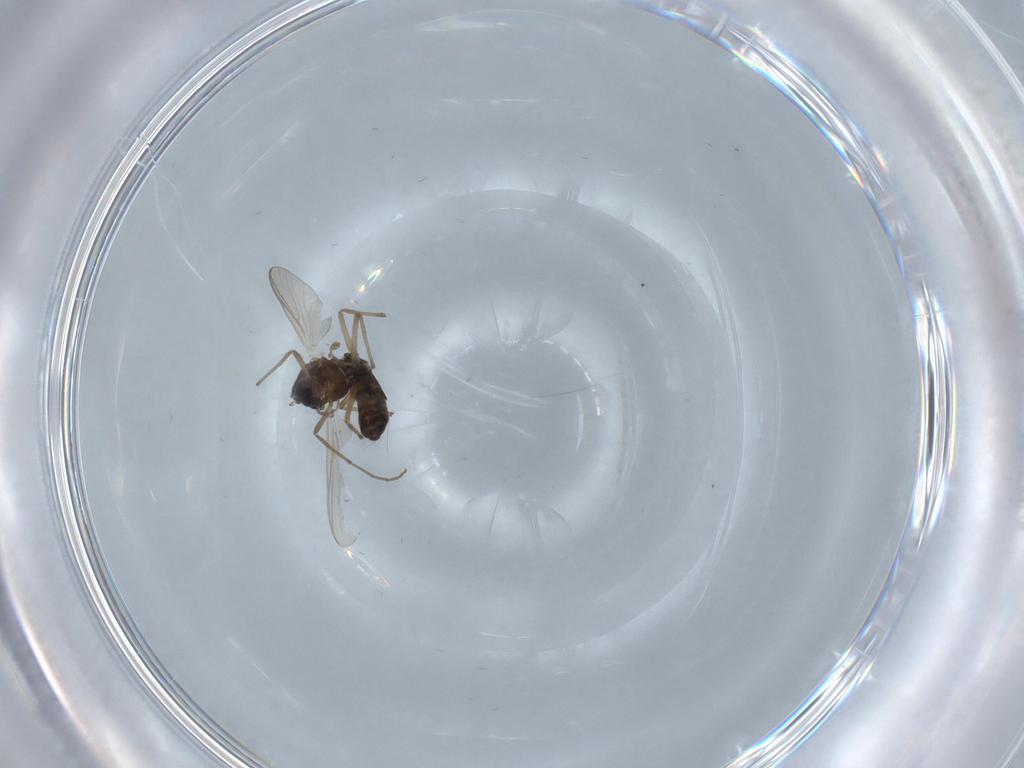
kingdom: Animalia
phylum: Arthropoda
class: Insecta
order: Diptera
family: Chironomidae
